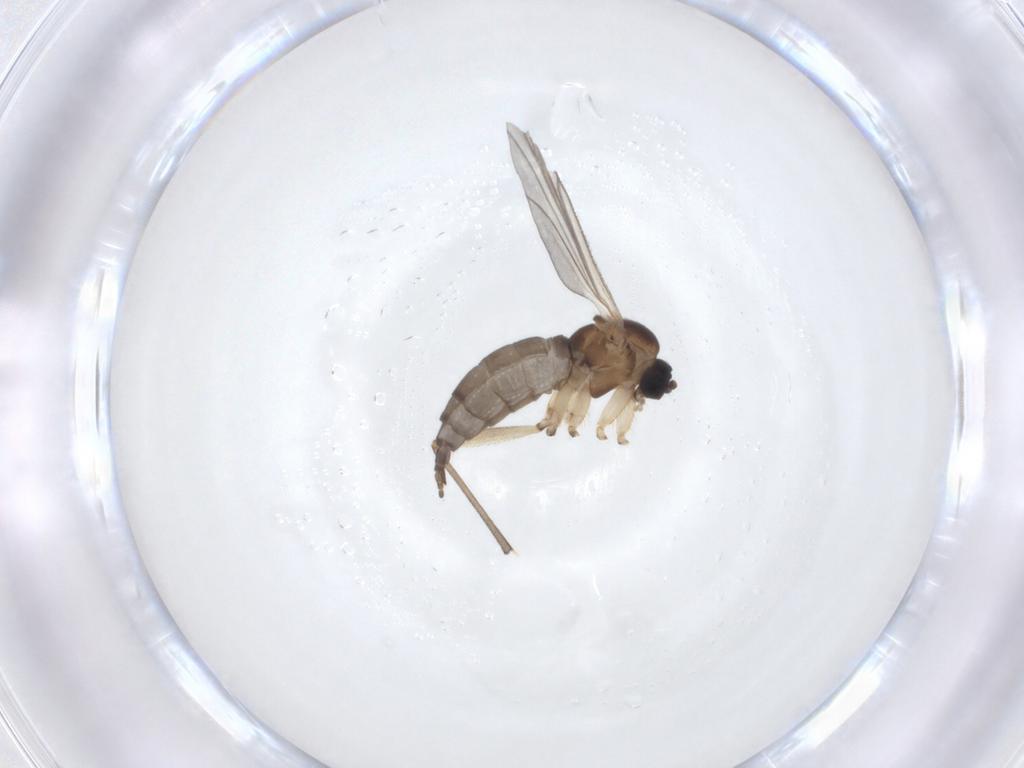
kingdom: Animalia
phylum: Arthropoda
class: Insecta
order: Diptera
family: Sciaridae
